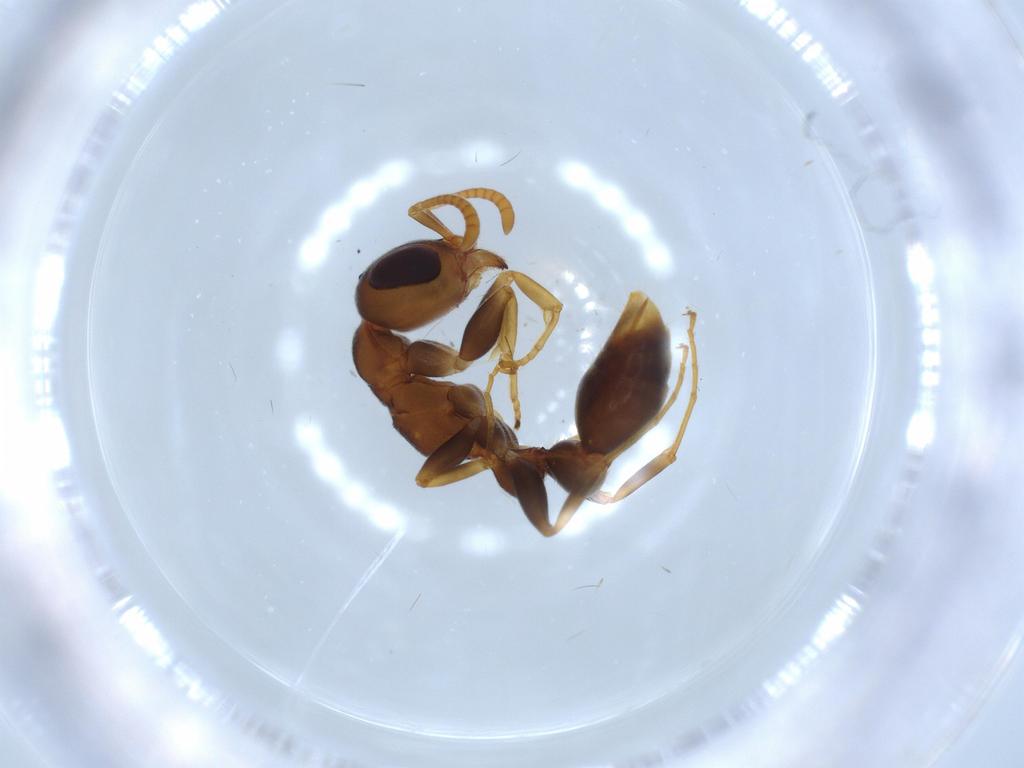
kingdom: Animalia
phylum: Arthropoda
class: Insecta
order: Hymenoptera
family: Formicidae
